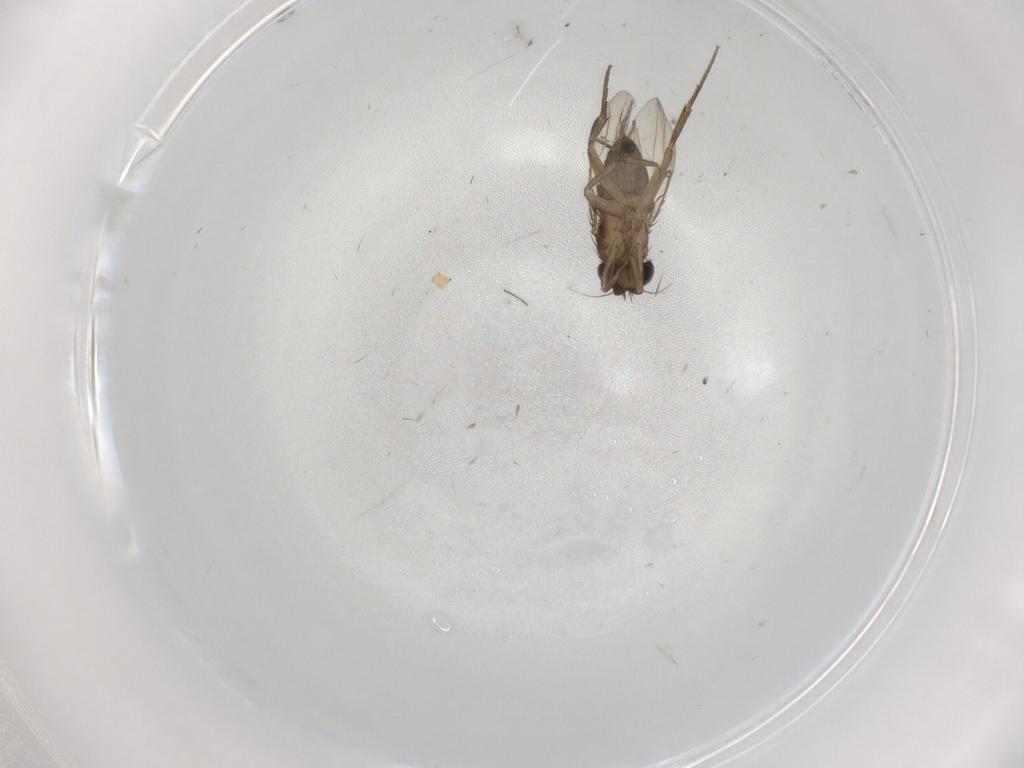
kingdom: Animalia
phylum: Arthropoda
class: Insecta
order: Diptera
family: Phoridae
